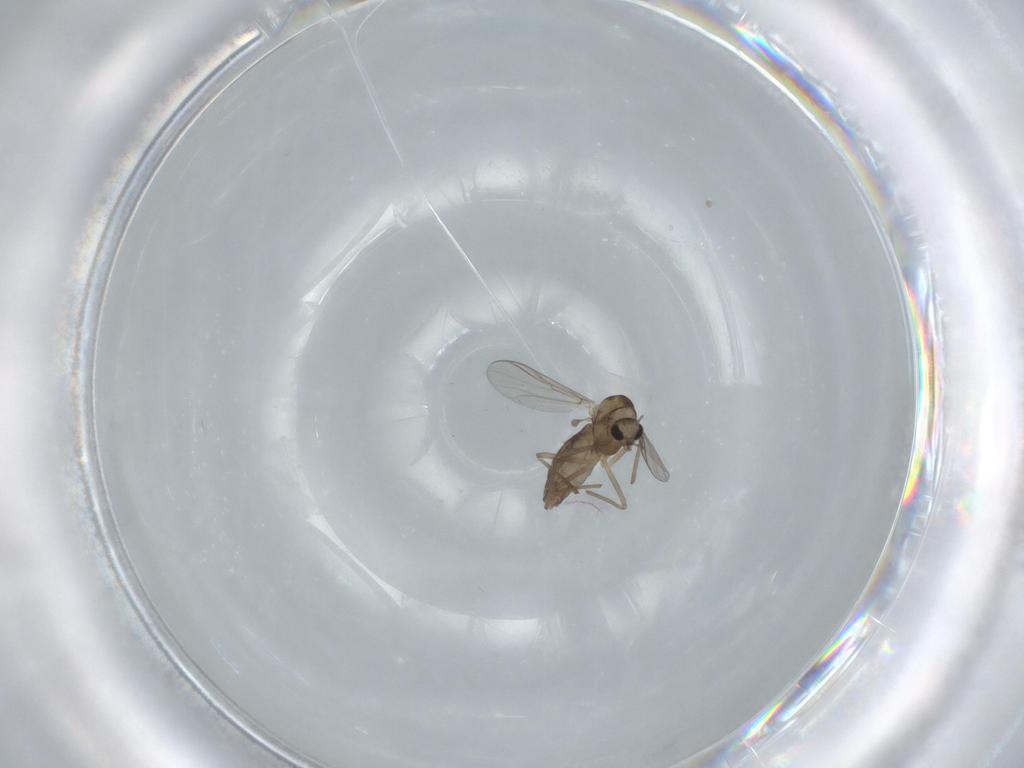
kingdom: Animalia
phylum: Arthropoda
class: Insecta
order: Diptera
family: Chironomidae
